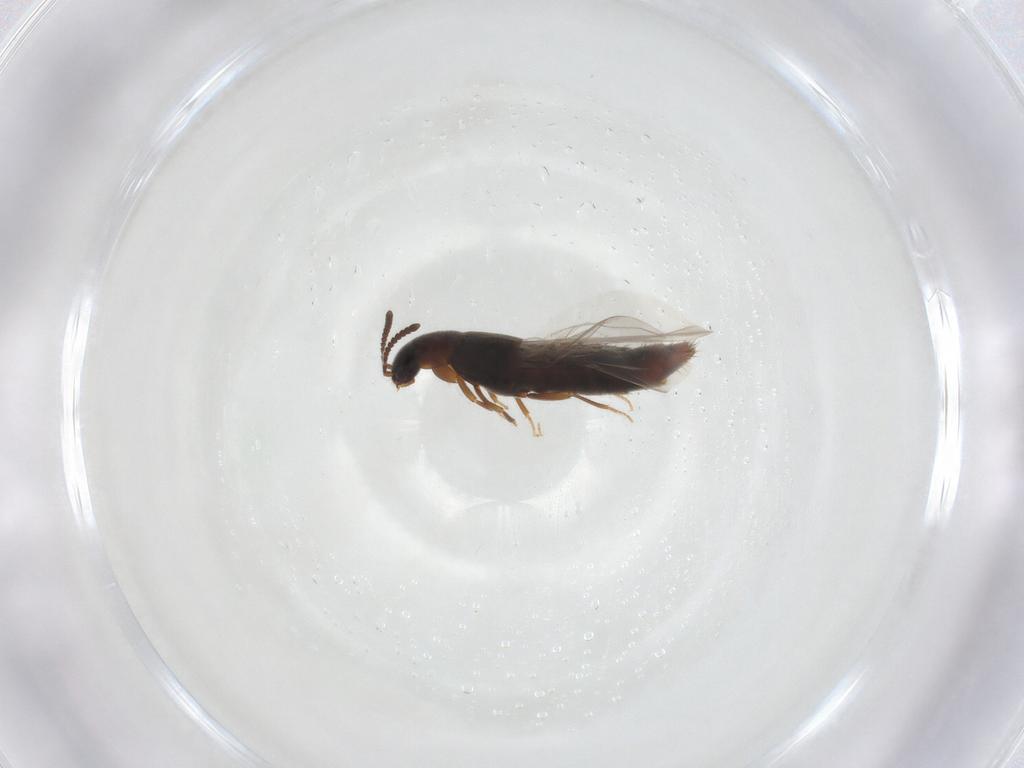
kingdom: Animalia
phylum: Arthropoda
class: Insecta
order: Coleoptera
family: Staphylinidae
